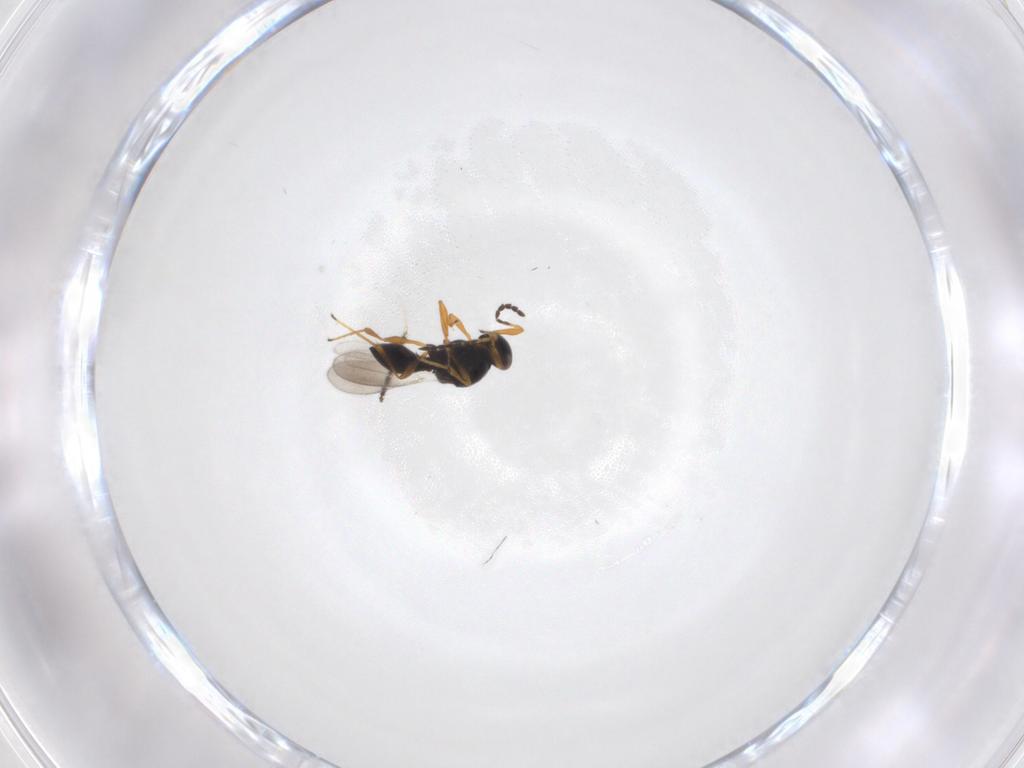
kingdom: Animalia
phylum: Arthropoda
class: Insecta
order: Hymenoptera
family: Platygastridae
